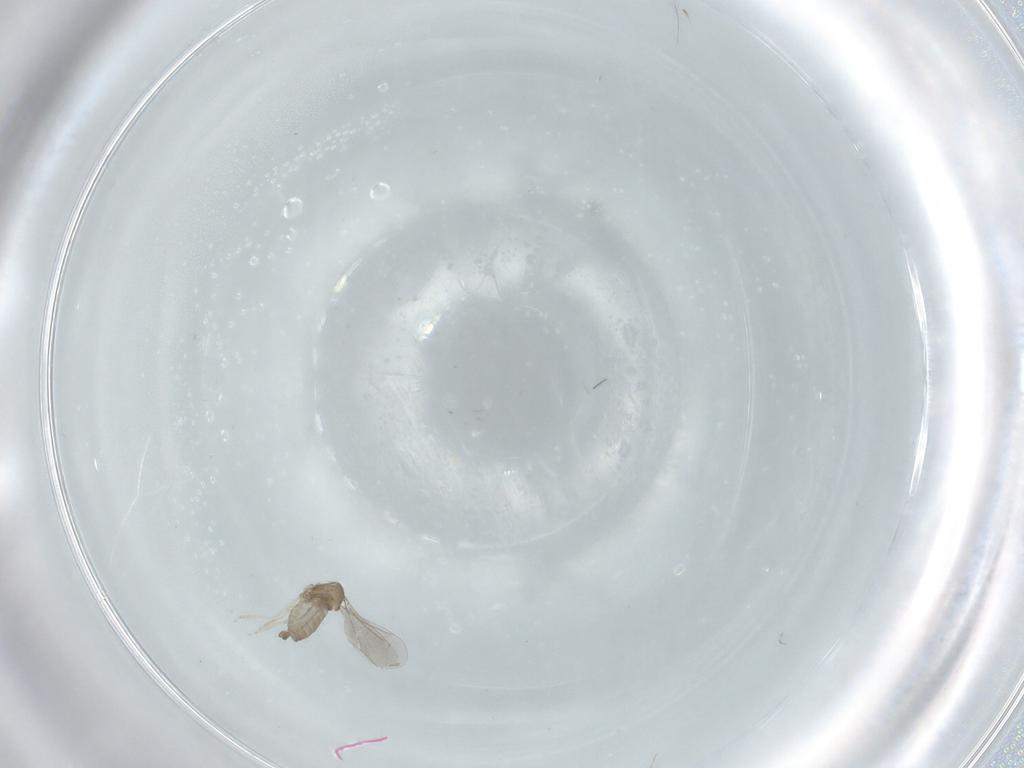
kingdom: Animalia
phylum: Arthropoda
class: Insecta
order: Diptera
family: Cecidomyiidae
